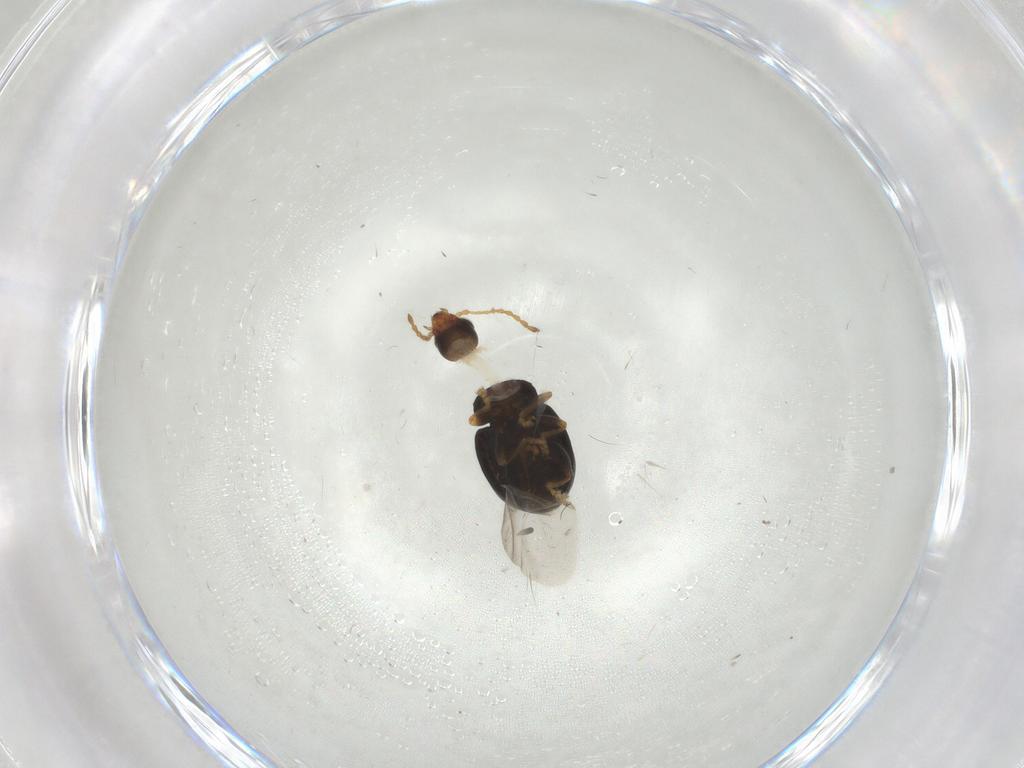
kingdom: Animalia
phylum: Arthropoda
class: Insecta
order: Coleoptera
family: Chrysomelidae
